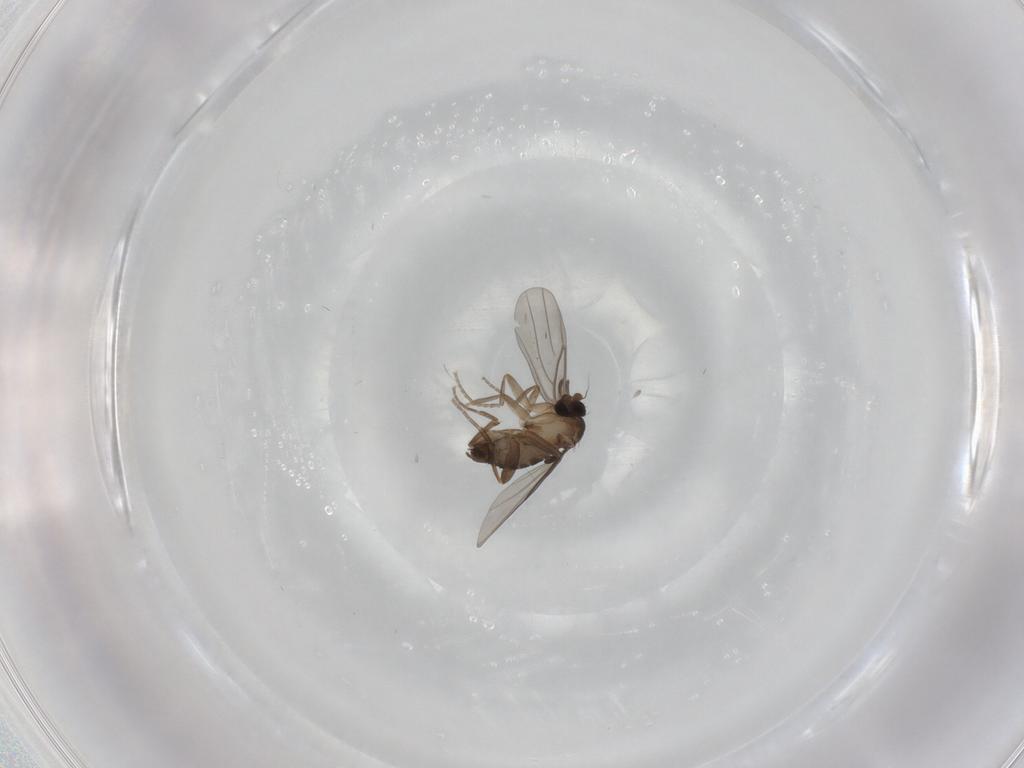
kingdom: Animalia
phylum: Arthropoda
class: Insecta
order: Diptera
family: Cecidomyiidae
